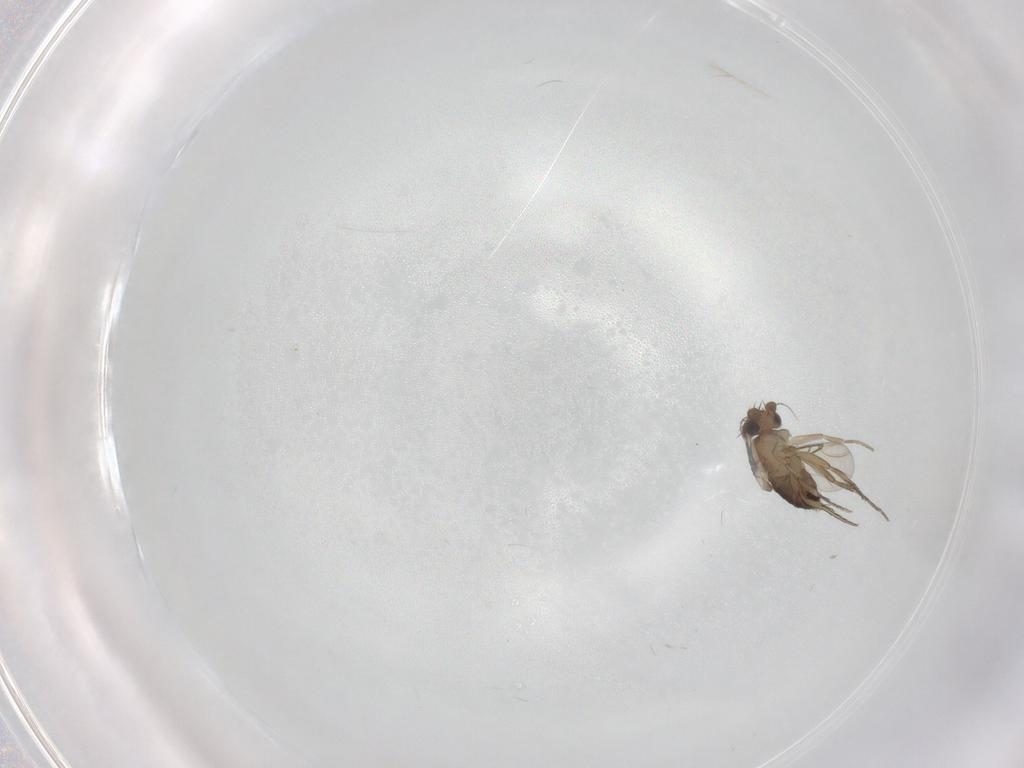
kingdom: Animalia
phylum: Arthropoda
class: Insecta
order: Diptera
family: Phoridae
